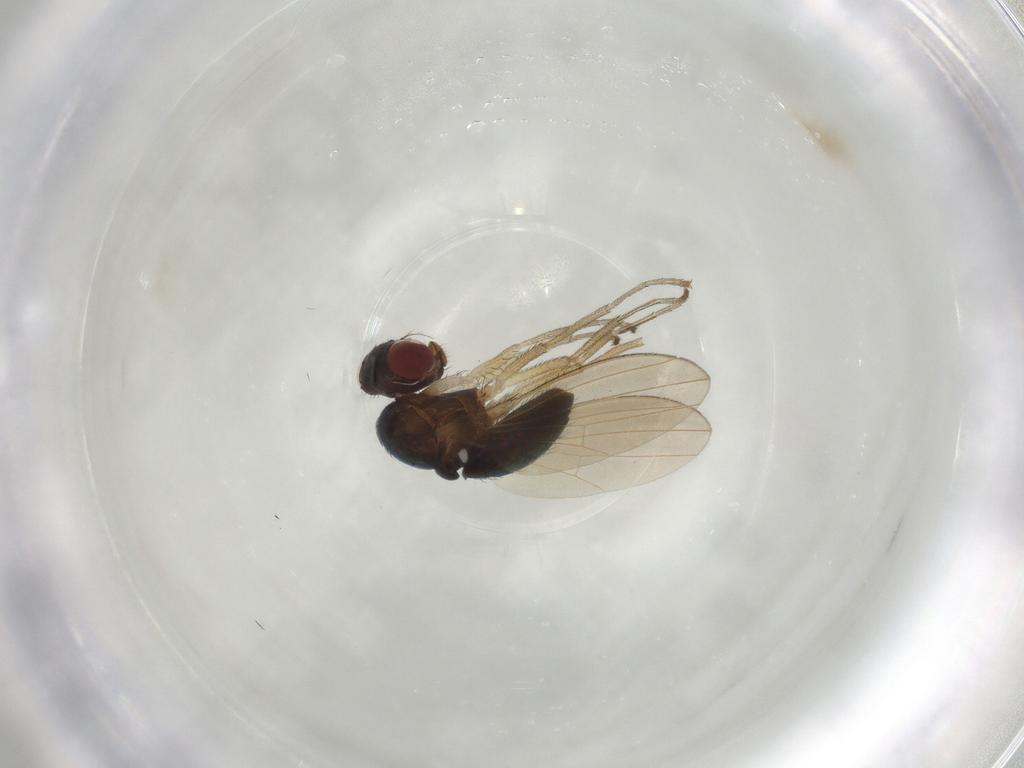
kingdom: Animalia
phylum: Arthropoda
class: Insecta
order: Diptera
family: Camillidae
